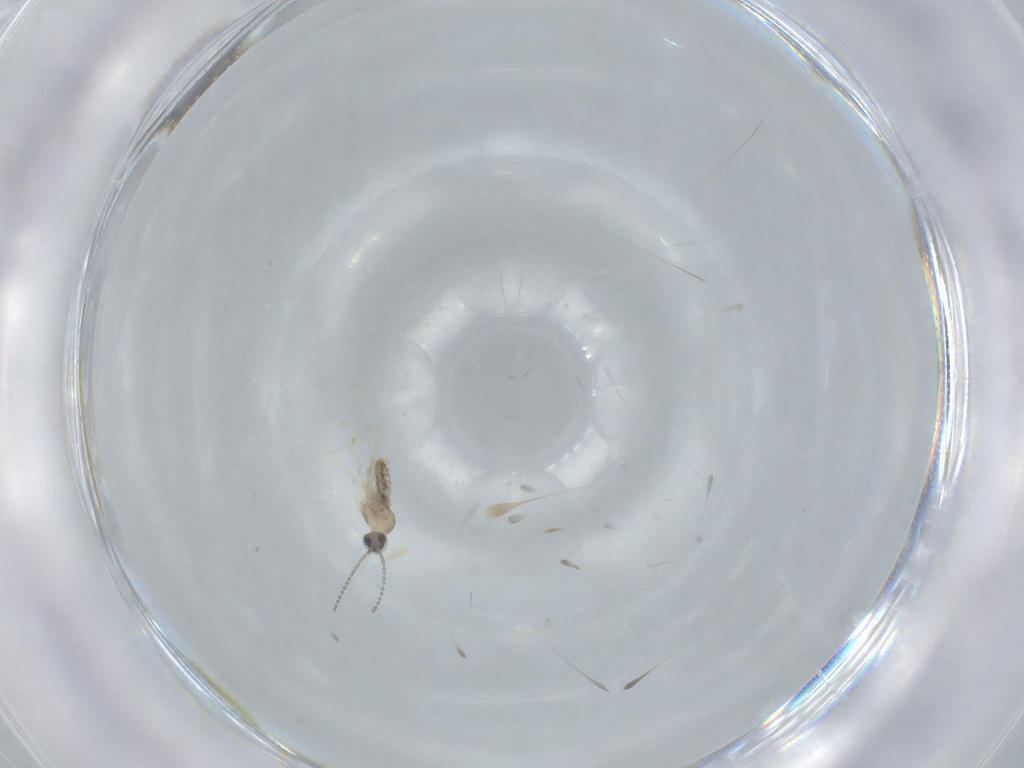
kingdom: Animalia
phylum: Arthropoda
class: Insecta
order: Diptera
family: Cecidomyiidae
